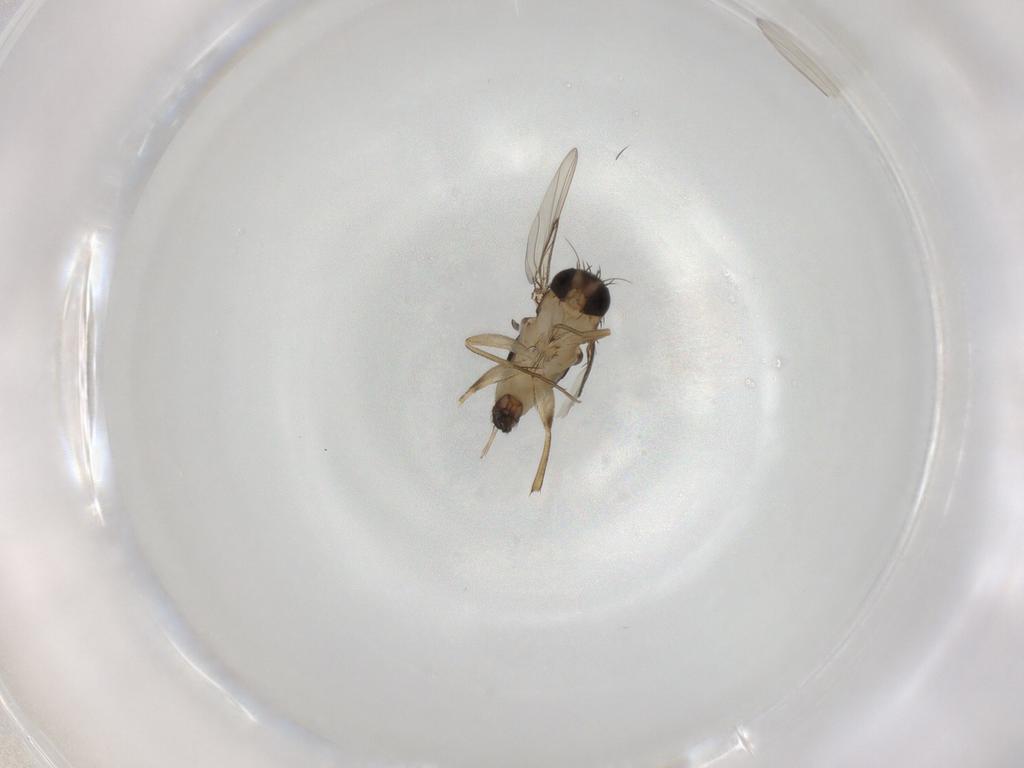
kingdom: Animalia
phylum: Arthropoda
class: Insecta
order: Diptera
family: Phoridae
